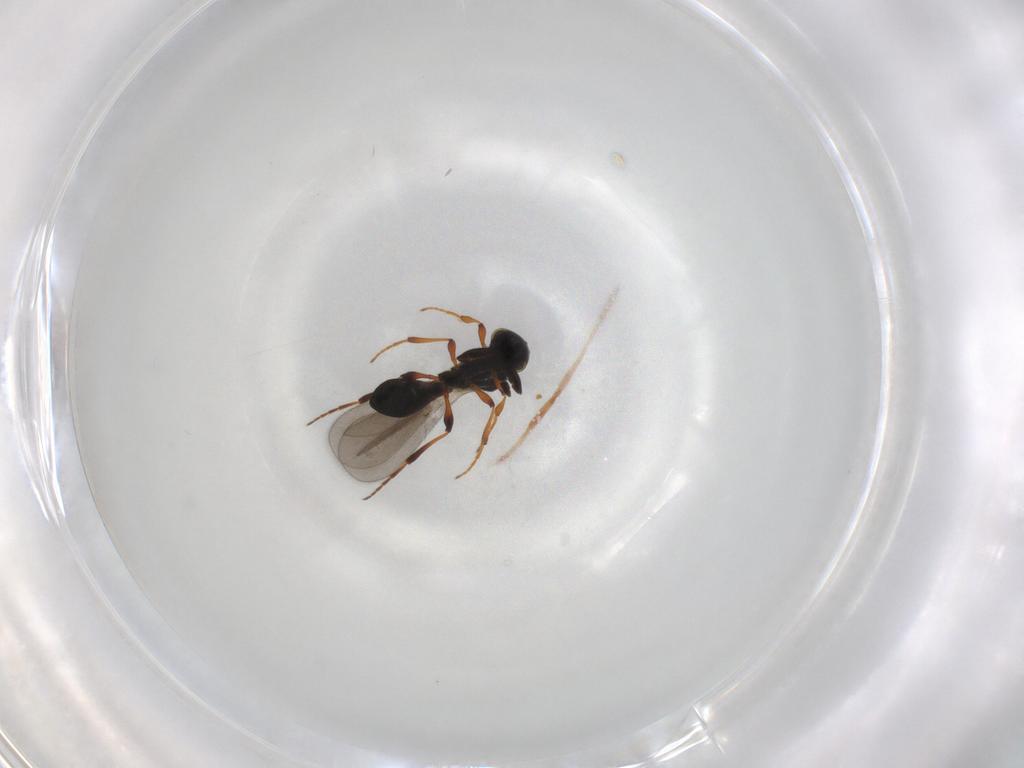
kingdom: Animalia
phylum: Arthropoda
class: Insecta
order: Hymenoptera
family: Platygastridae
